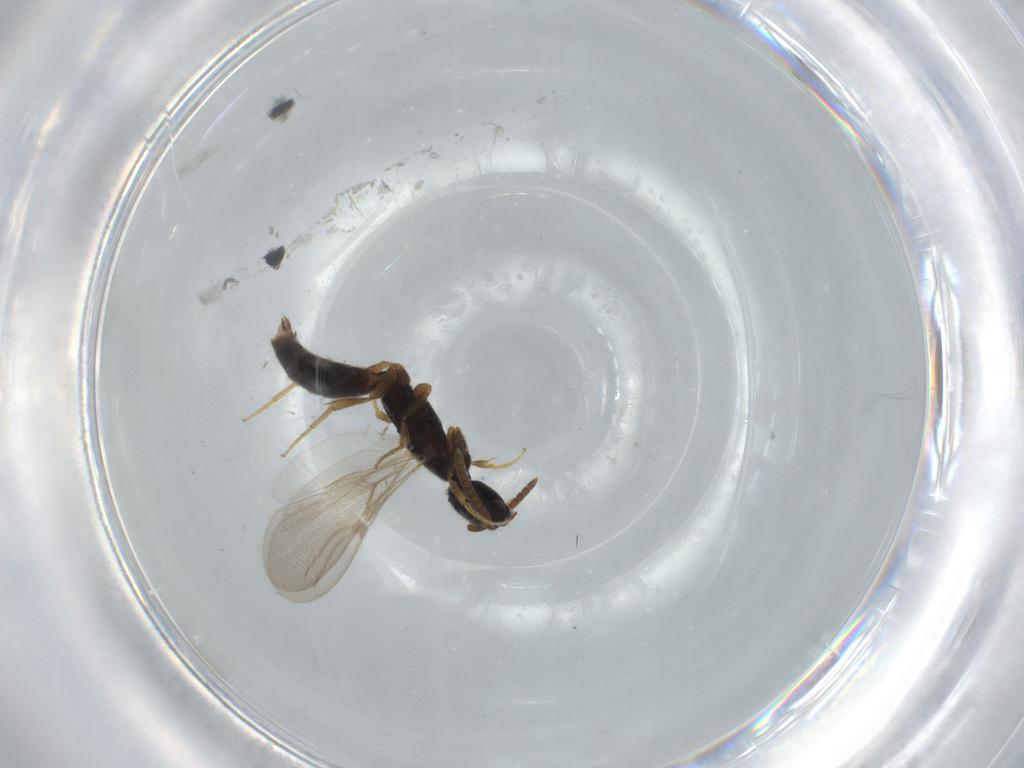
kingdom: Animalia
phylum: Arthropoda
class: Insecta
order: Hymenoptera
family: Bethylidae
